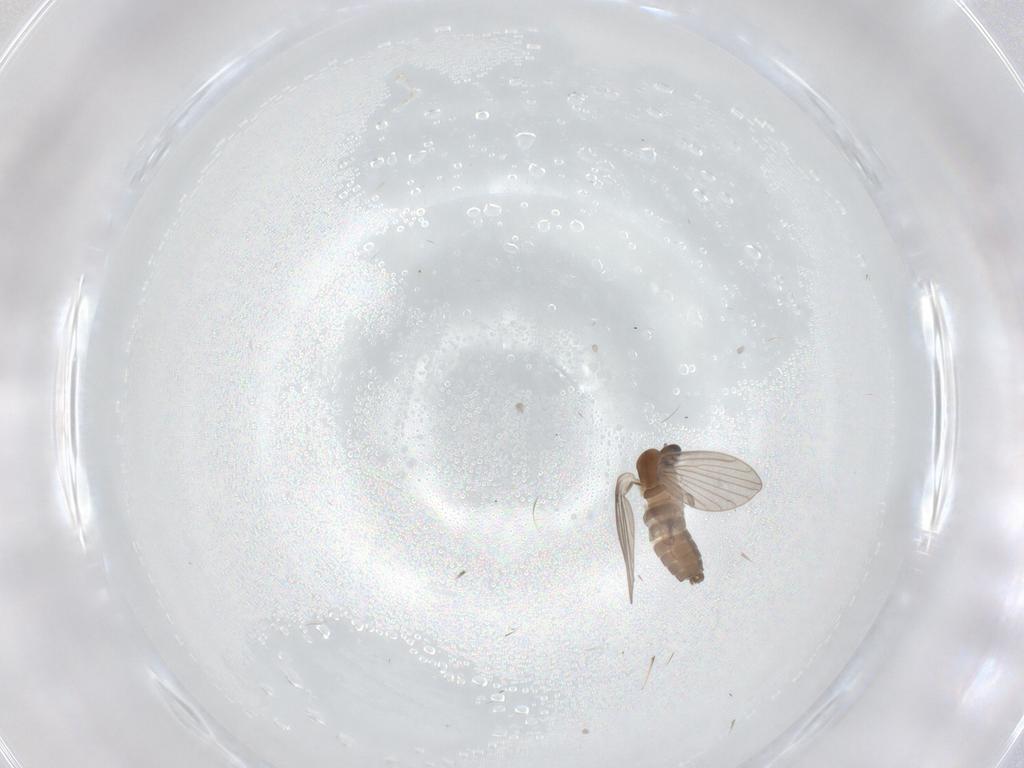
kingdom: Animalia
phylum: Arthropoda
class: Insecta
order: Diptera
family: Psychodidae
